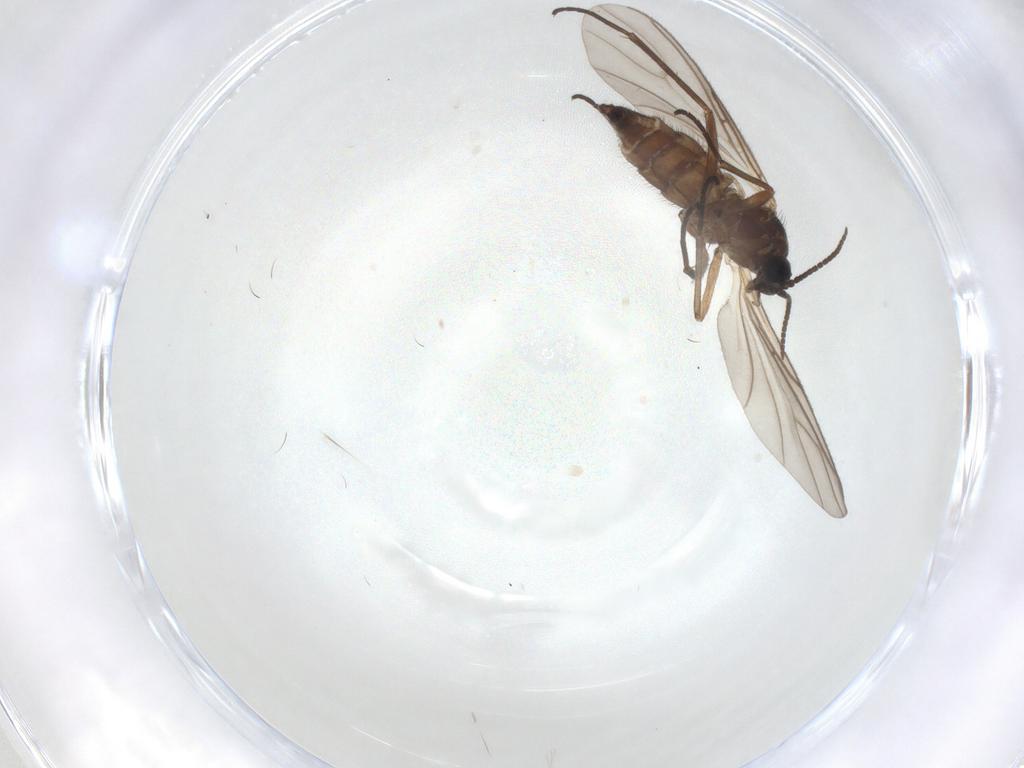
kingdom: Animalia
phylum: Arthropoda
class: Insecta
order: Diptera
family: Sciaridae
